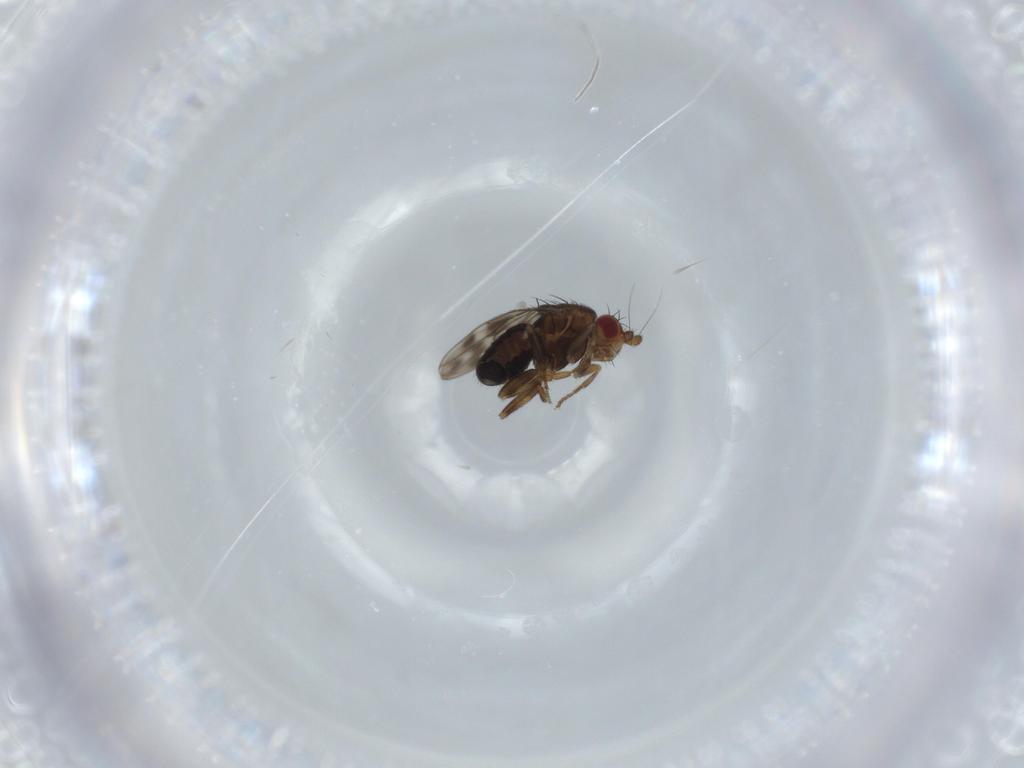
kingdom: Animalia
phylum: Arthropoda
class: Insecta
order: Diptera
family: Sphaeroceridae
